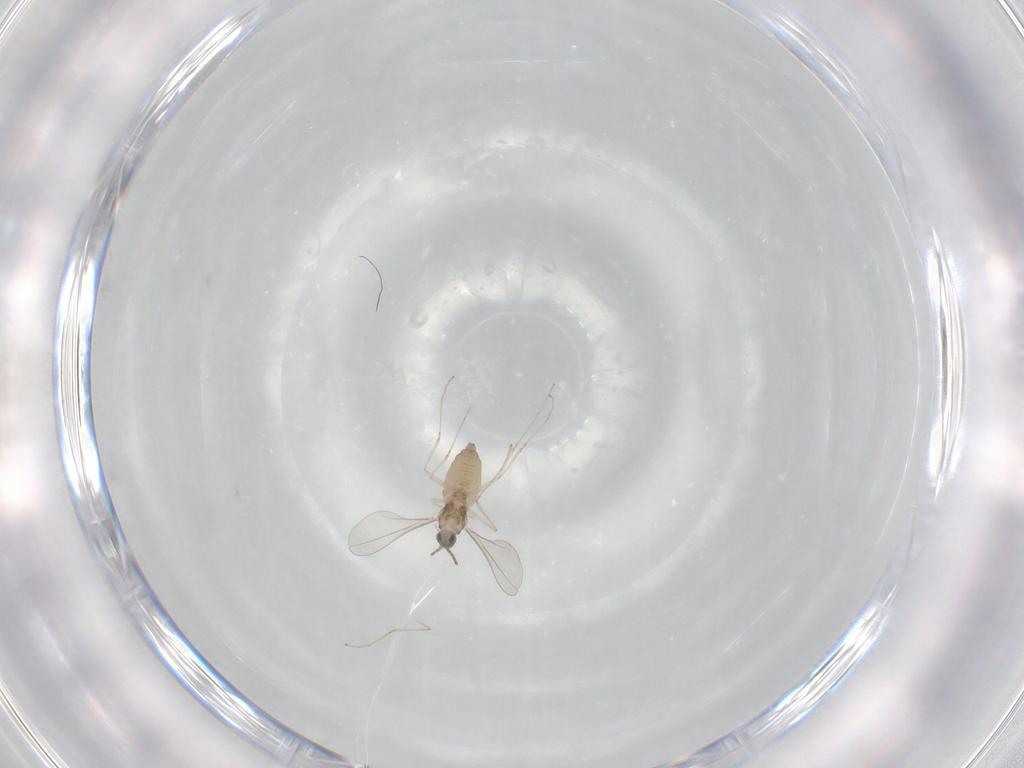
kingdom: Animalia
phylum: Arthropoda
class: Insecta
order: Diptera
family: Cecidomyiidae
